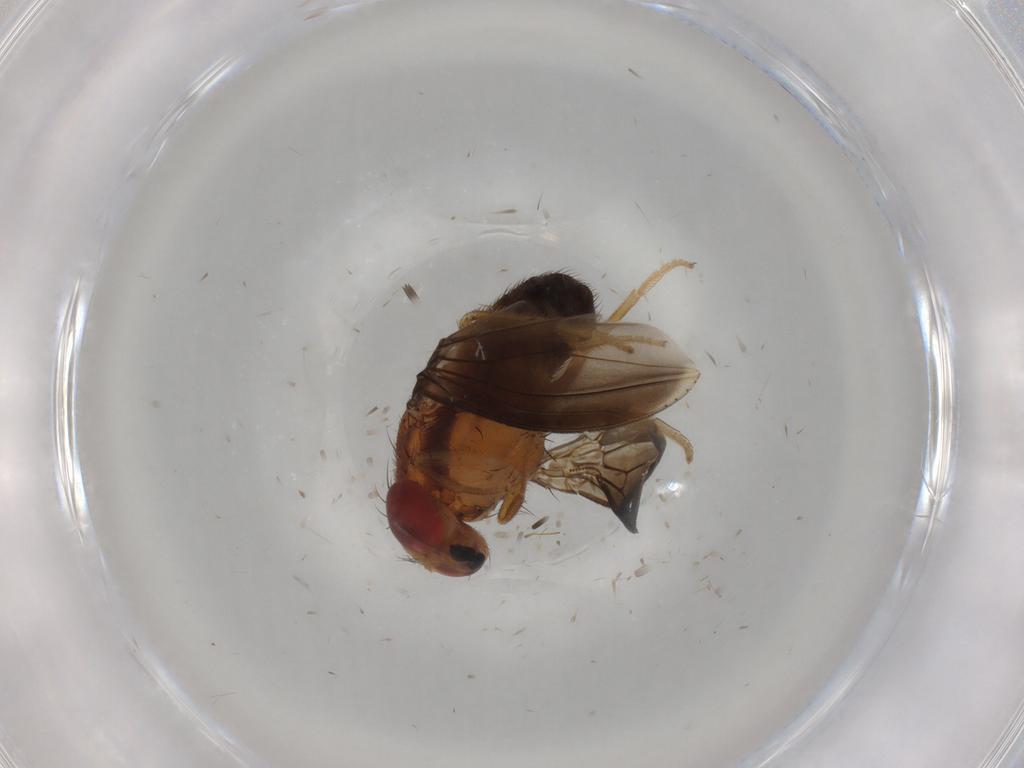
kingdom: Animalia
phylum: Arthropoda
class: Insecta
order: Diptera
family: Drosophilidae
